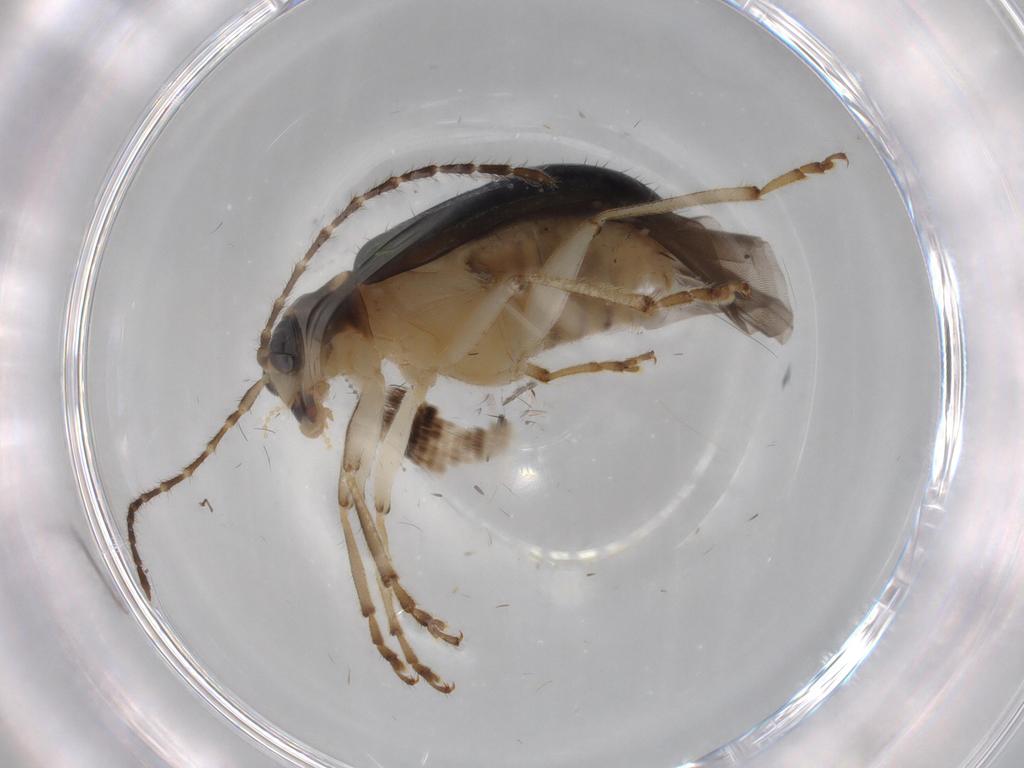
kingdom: Animalia
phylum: Arthropoda
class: Insecta
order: Coleoptera
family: Chrysomelidae
